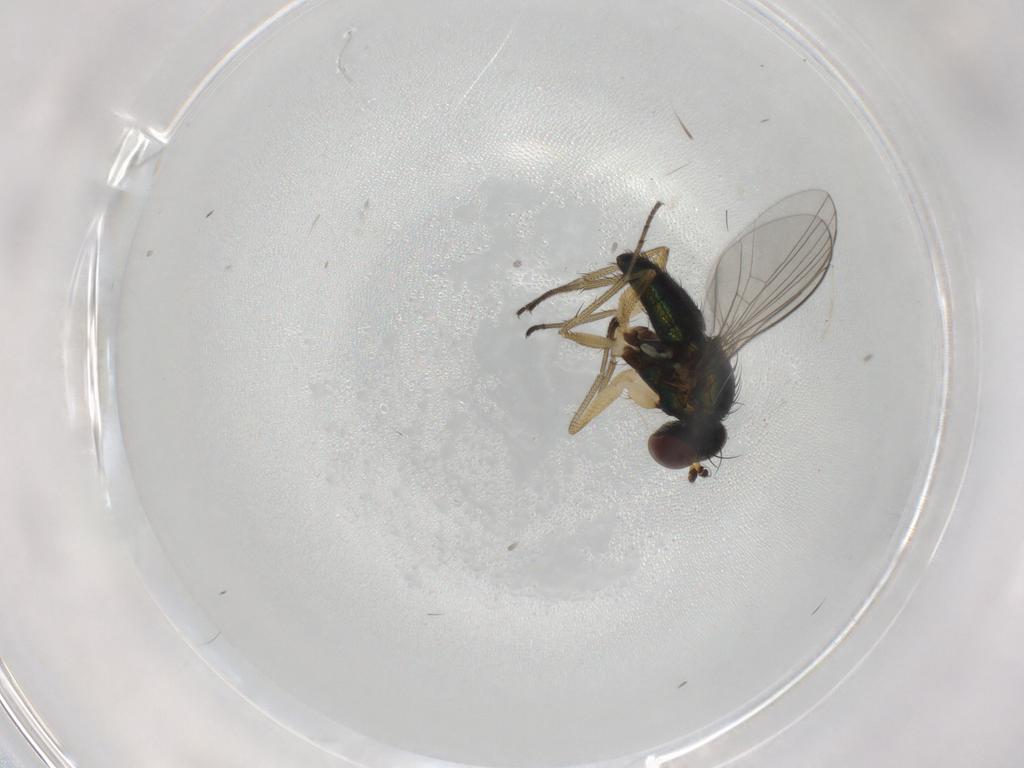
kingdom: Animalia
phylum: Arthropoda
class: Insecta
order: Diptera
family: Dolichopodidae
